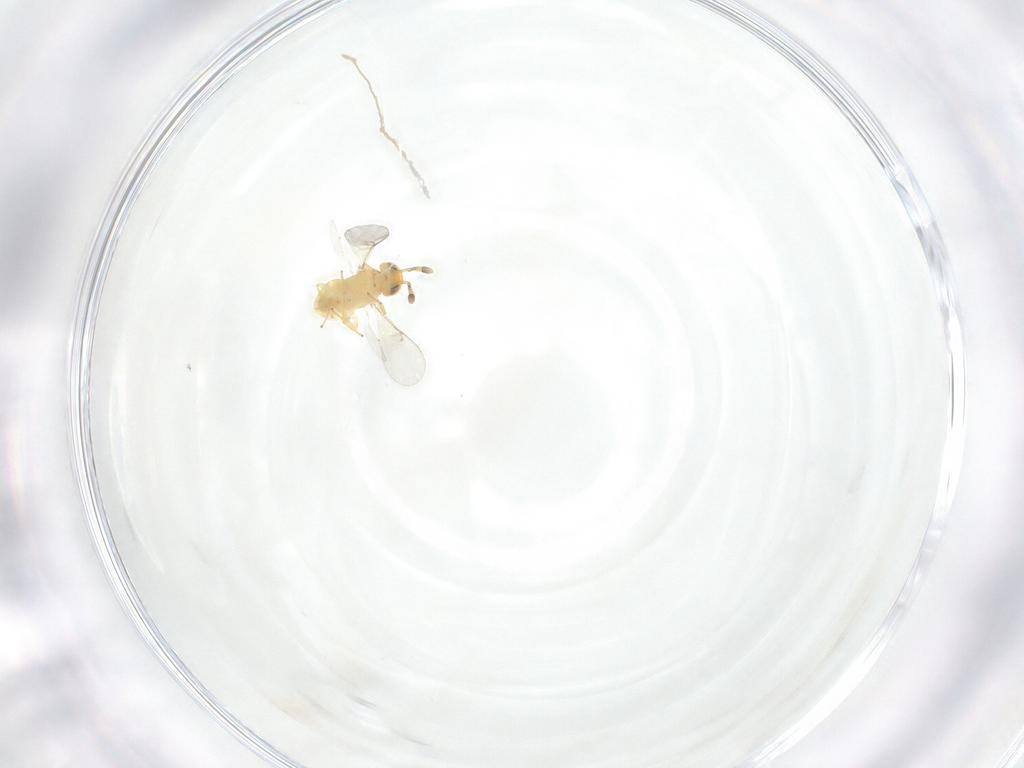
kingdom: Animalia
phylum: Arthropoda
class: Insecta
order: Hymenoptera
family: Encyrtidae
